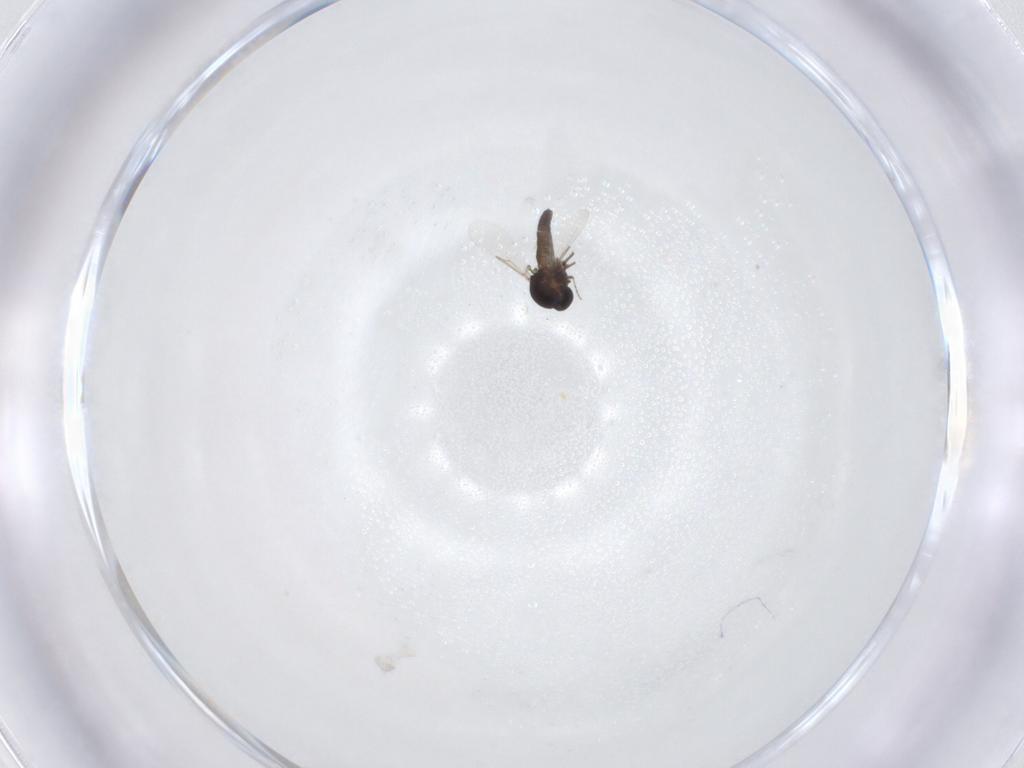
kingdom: Animalia
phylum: Arthropoda
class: Insecta
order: Diptera
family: Ceratopogonidae
